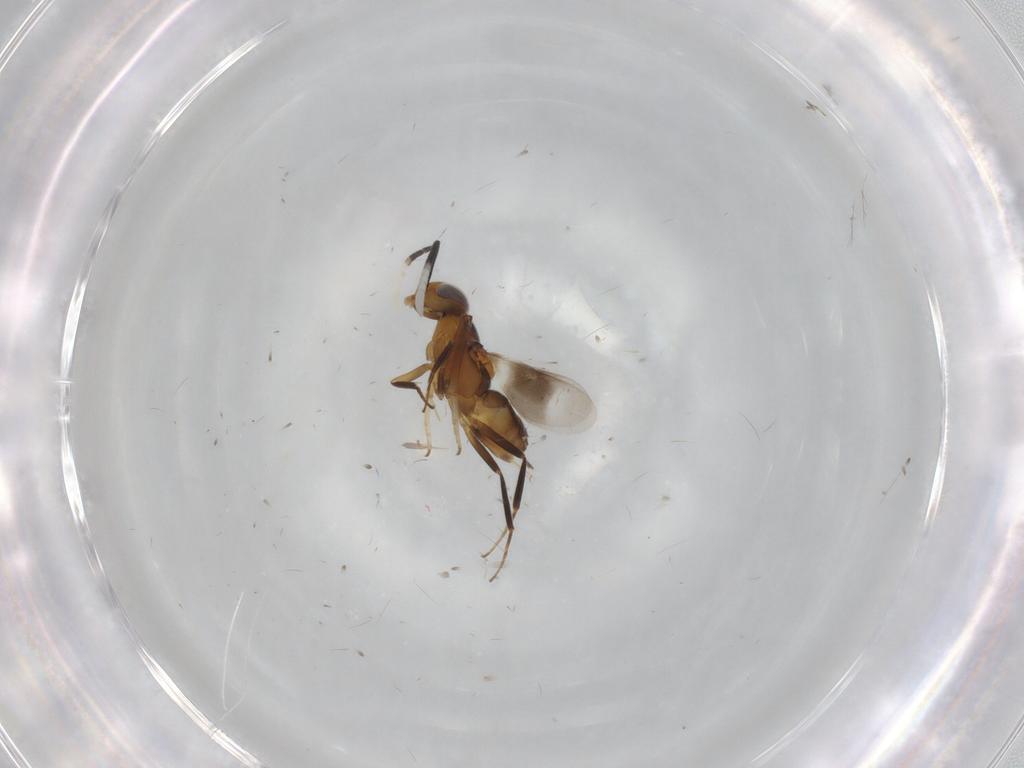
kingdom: Animalia
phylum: Arthropoda
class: Insecta
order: Hymenoptera
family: Encyrtidae
